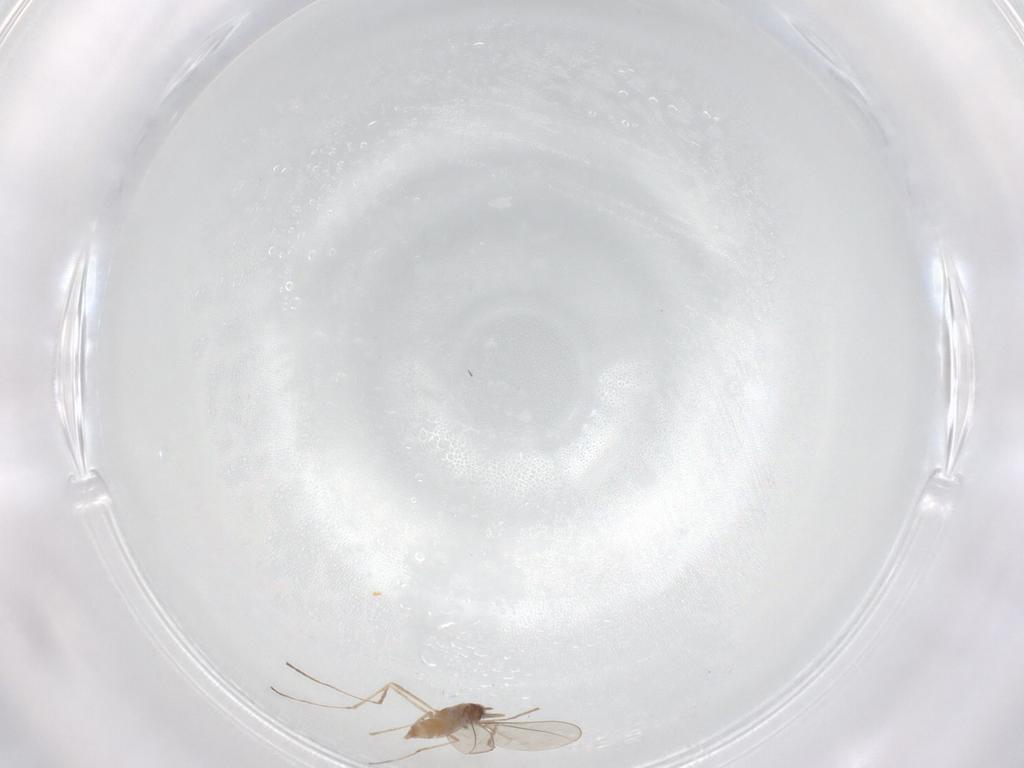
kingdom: Animalia
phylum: Arthropoda
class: Insecta
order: Diptera
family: Cecidomyiidae
